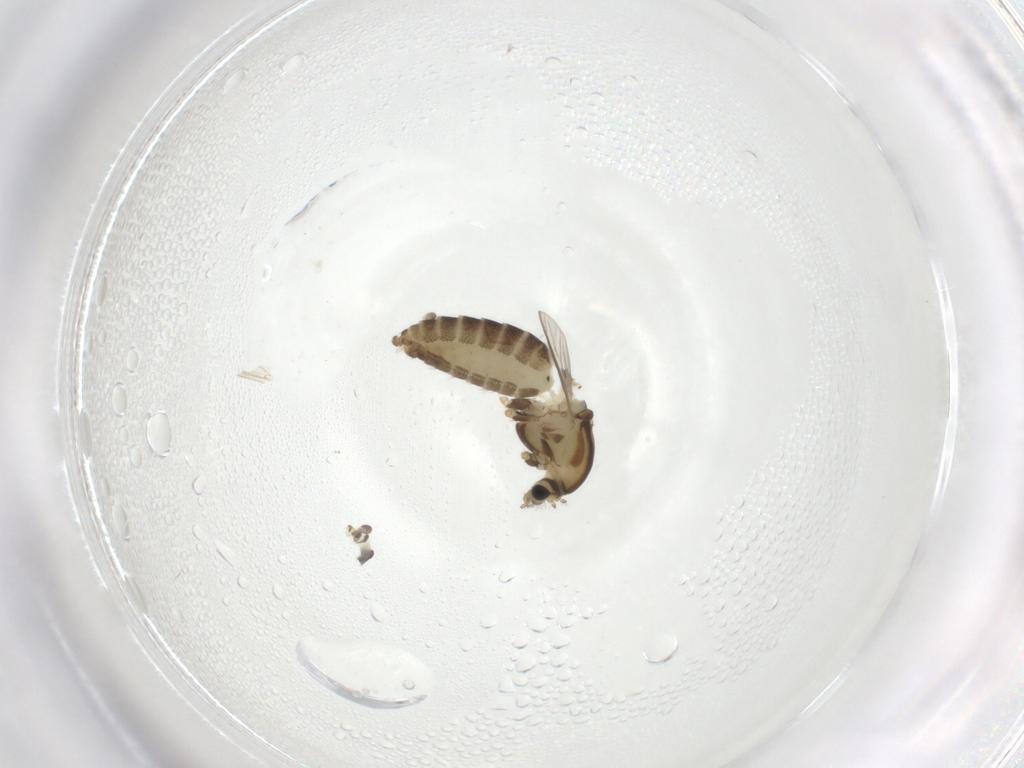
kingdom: Animalia
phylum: Arthropoda
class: Insecta
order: Diptera
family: Chironomidae
